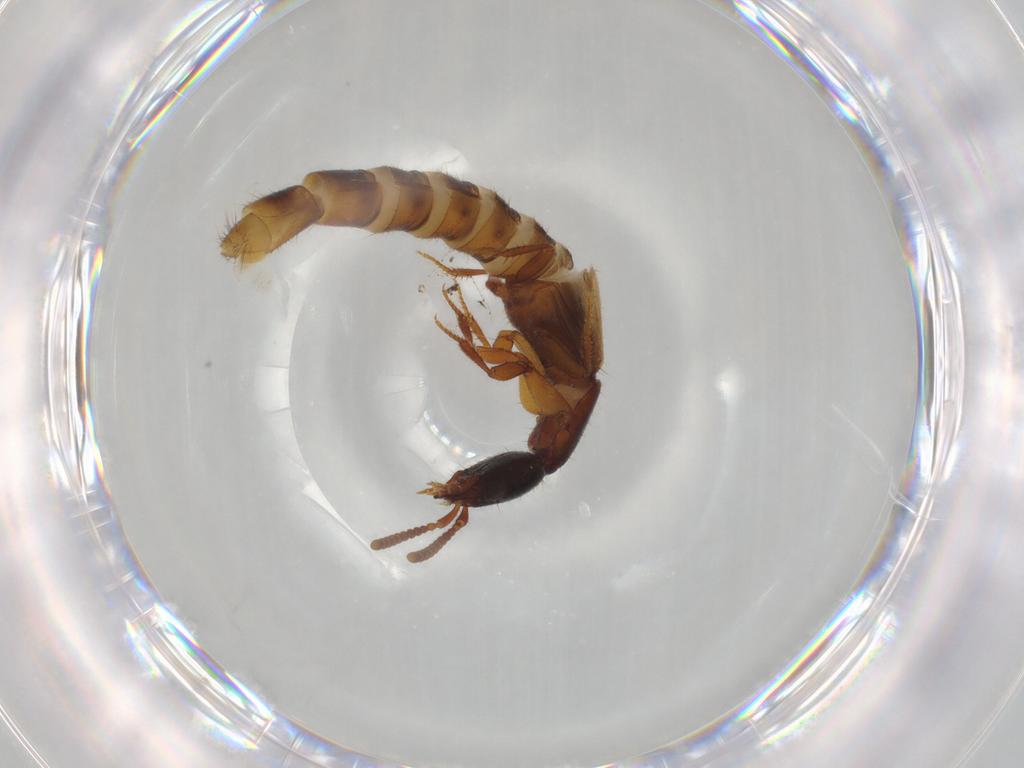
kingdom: Animalia
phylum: Arthropoda
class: Insecta
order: Coleoptera
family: Staphylinidae
